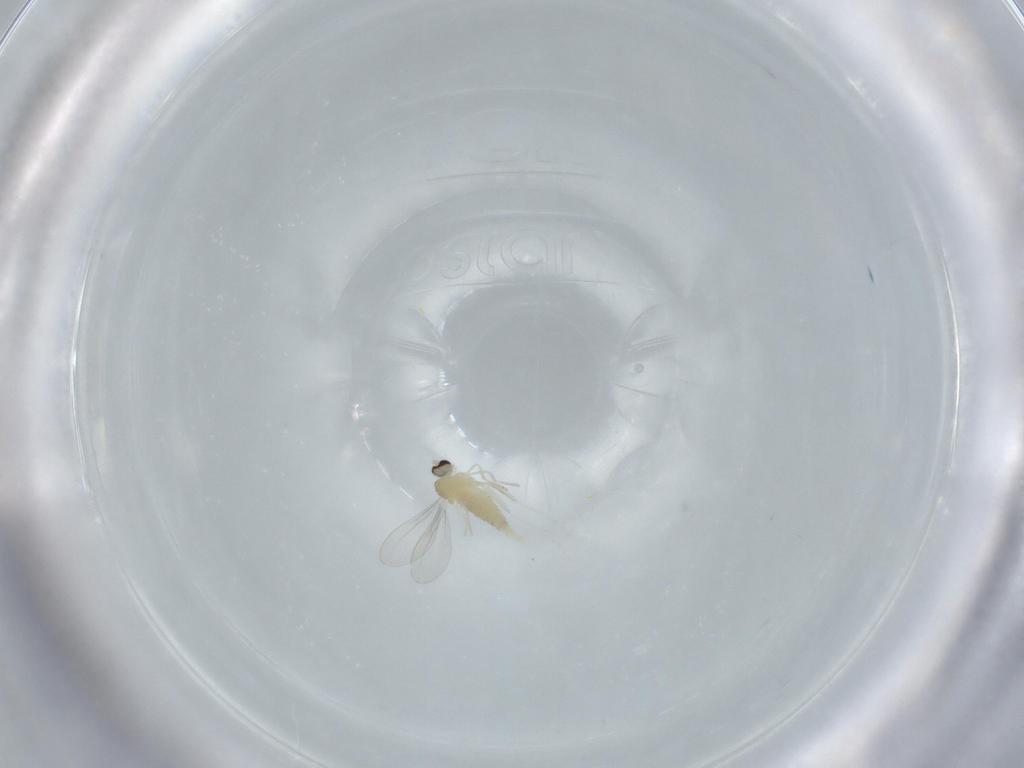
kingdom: Animalia
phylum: Arthropoda
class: Insecta
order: Diptera
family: Cecidomyiidae
